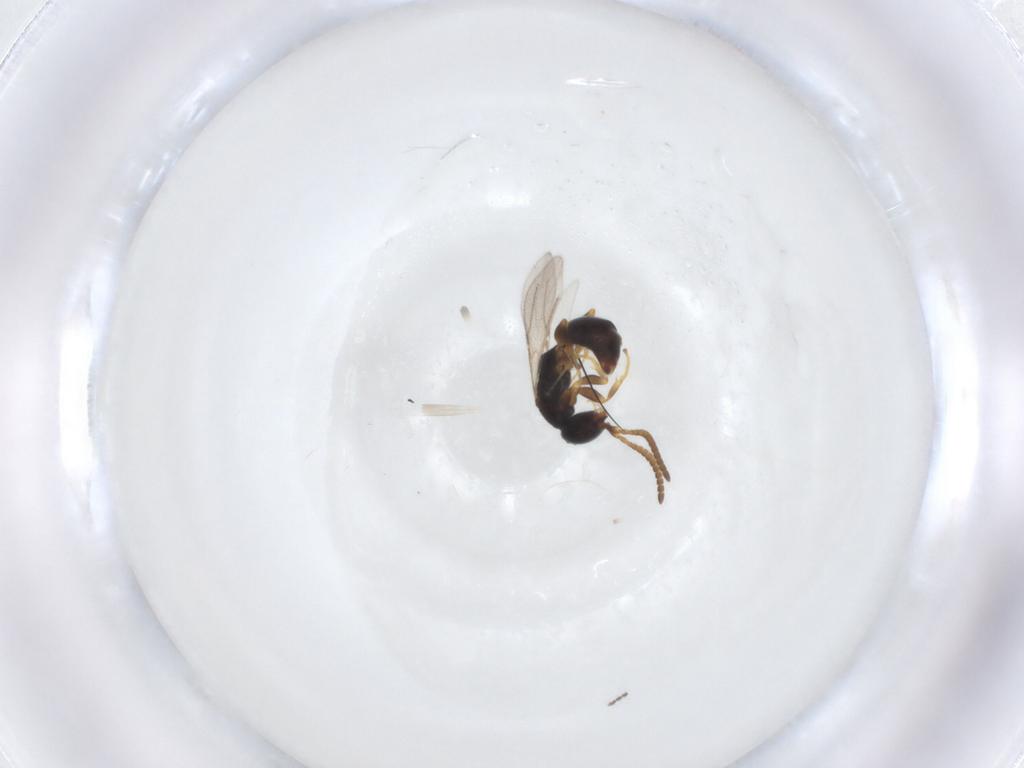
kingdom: Animalia
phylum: Arthropoda
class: Insecta
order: Hymenoptera
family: Bethylidae
